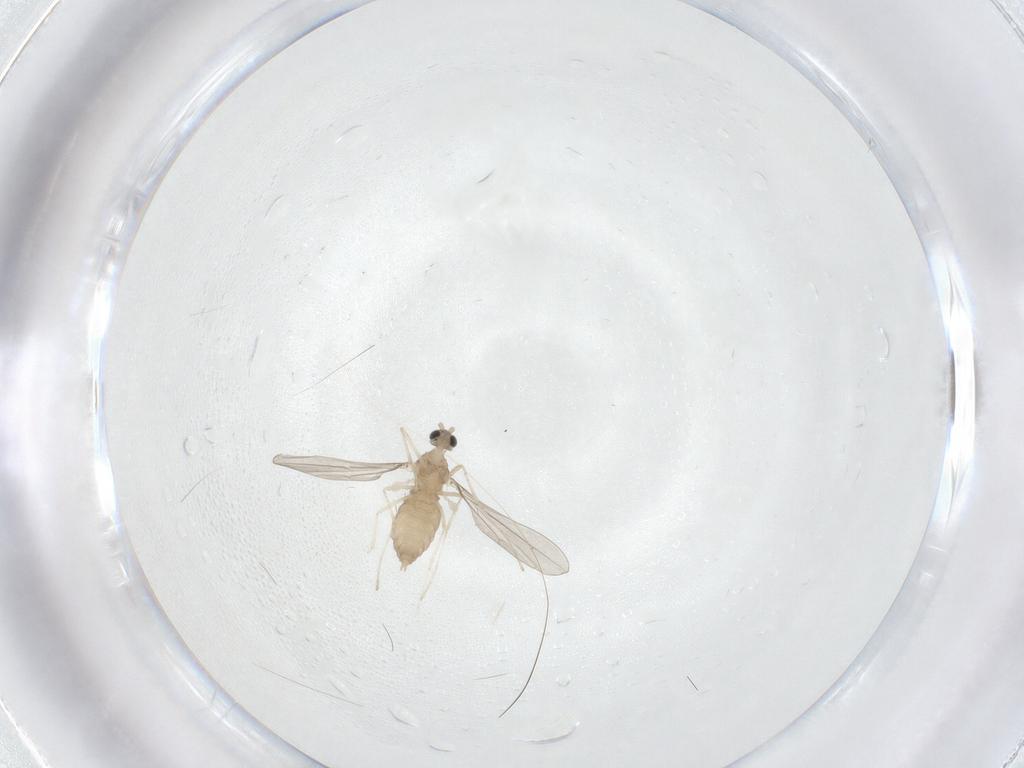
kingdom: Animalia
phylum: Arthropoda
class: Insecta
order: Diptera
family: Cecidomyiidae
